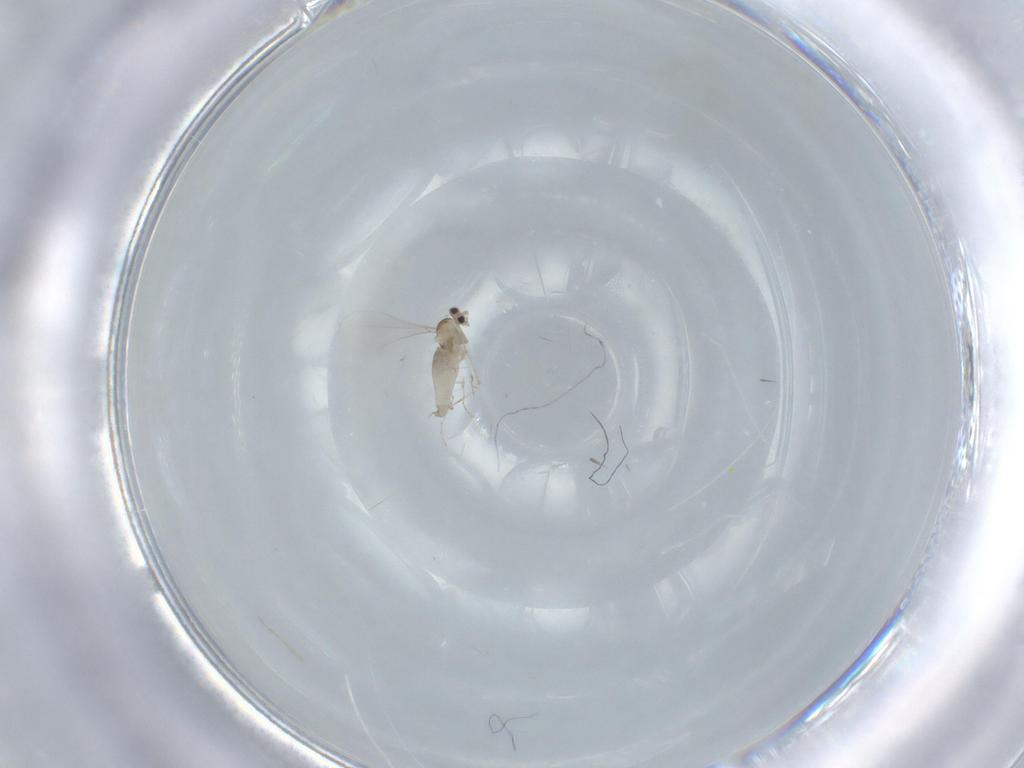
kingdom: Animalia
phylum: Arthropoda
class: Insecta
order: Diptera
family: Cecidomyiidae
